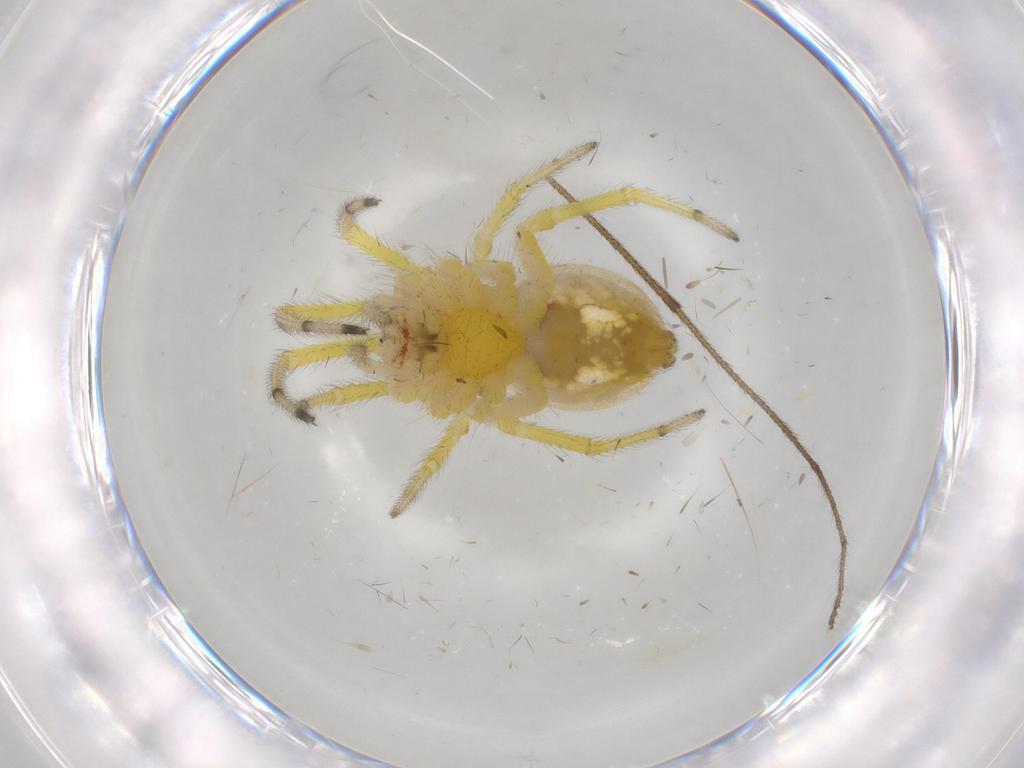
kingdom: Animalia
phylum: Arthropoda
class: Arachnida
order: Araneae
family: Araneidae
